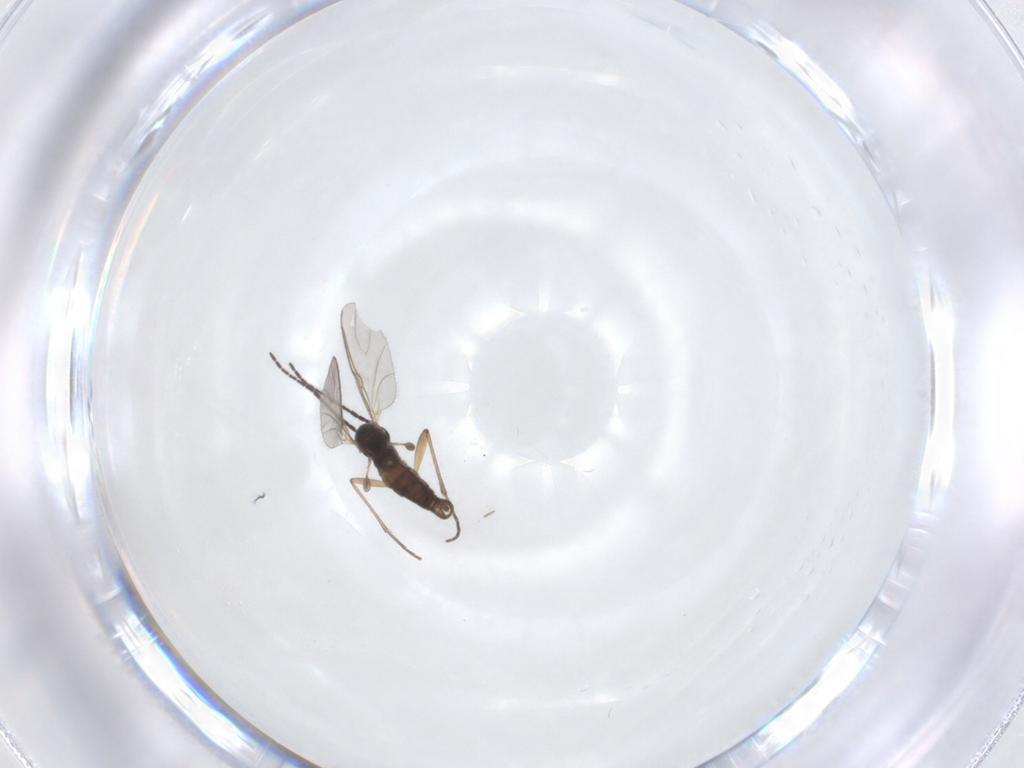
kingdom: Animalia
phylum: Arthropoda
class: Insecta
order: Diptera
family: Sciaridae
